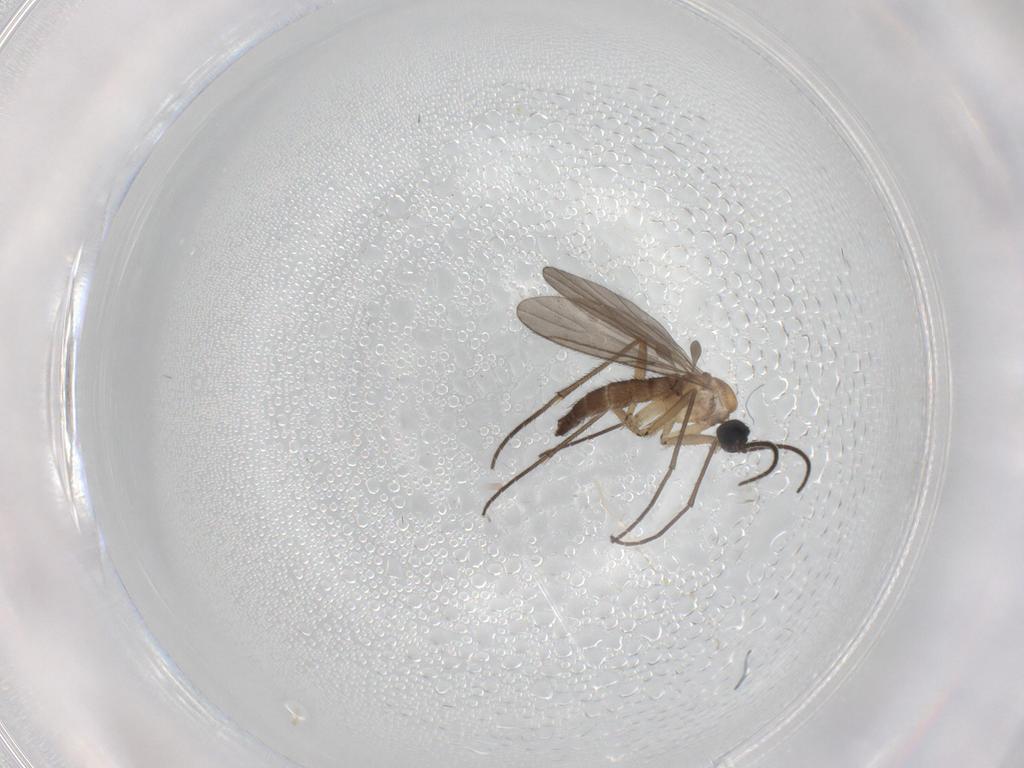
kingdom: Animalia
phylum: Arthropoda
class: Insecta
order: Diptera
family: Sciaridae
